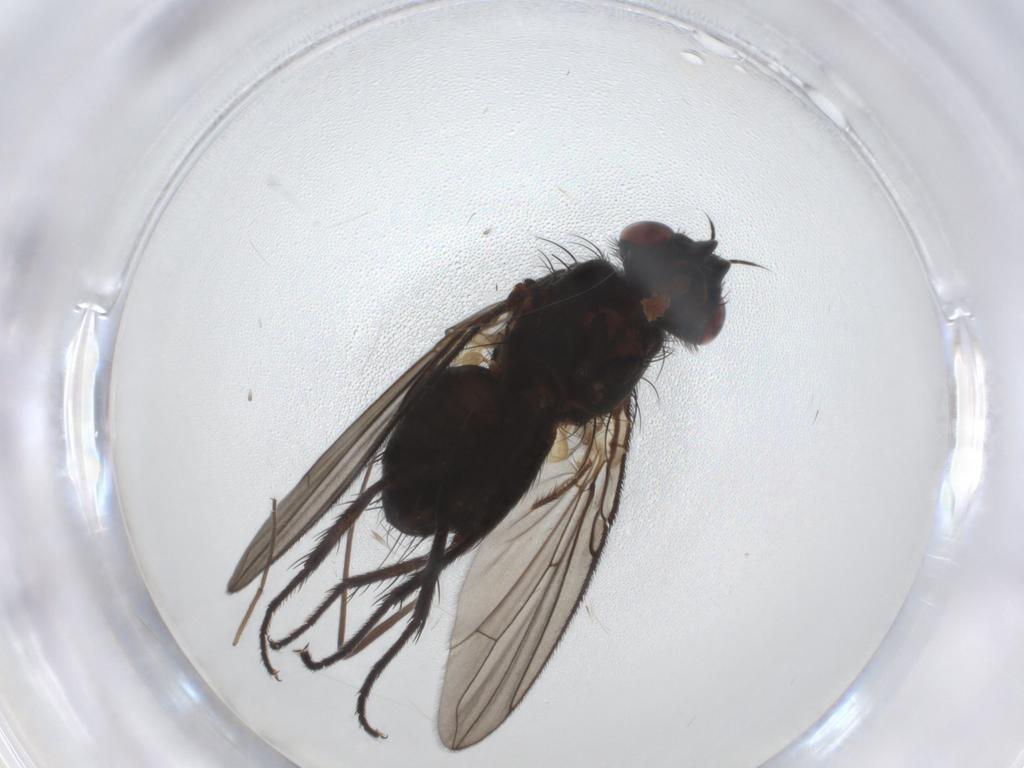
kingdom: Animalia
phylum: Arthropoda
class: Insecta
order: Diptera
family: Tachinidae
